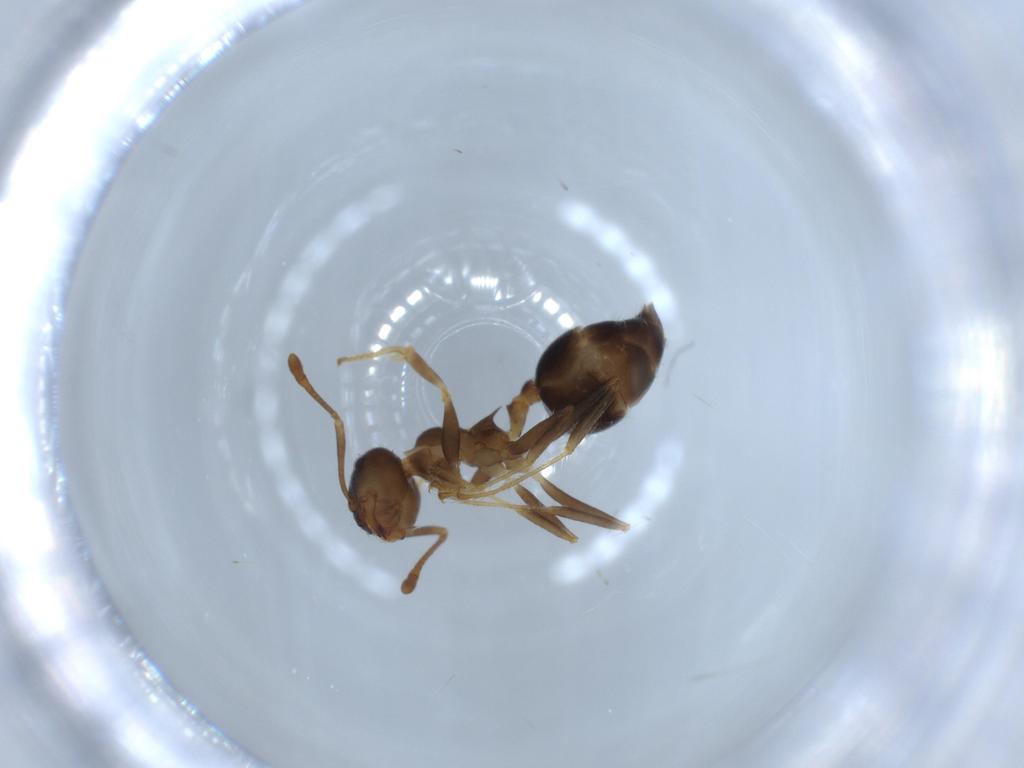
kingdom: Animalia
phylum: Arthropoda
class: Insecta
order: Hymenoptera
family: Formicidae
